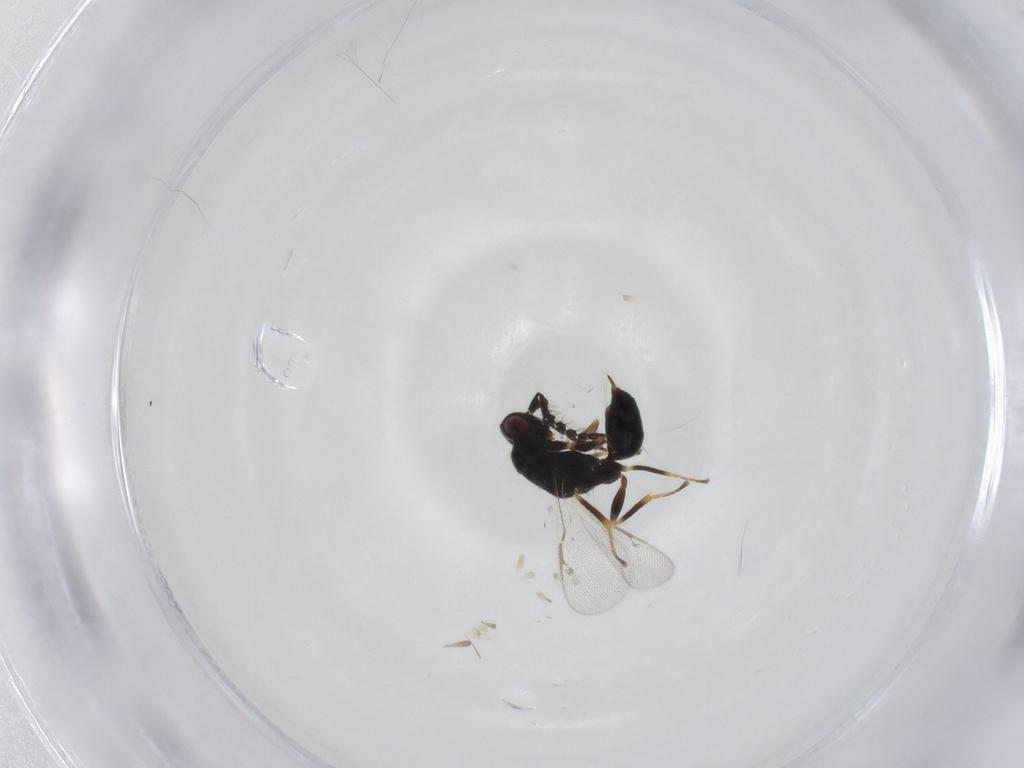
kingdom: Animalia
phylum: Arthropoda
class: Insecta
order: Hymenoptera
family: Eurytomidae
